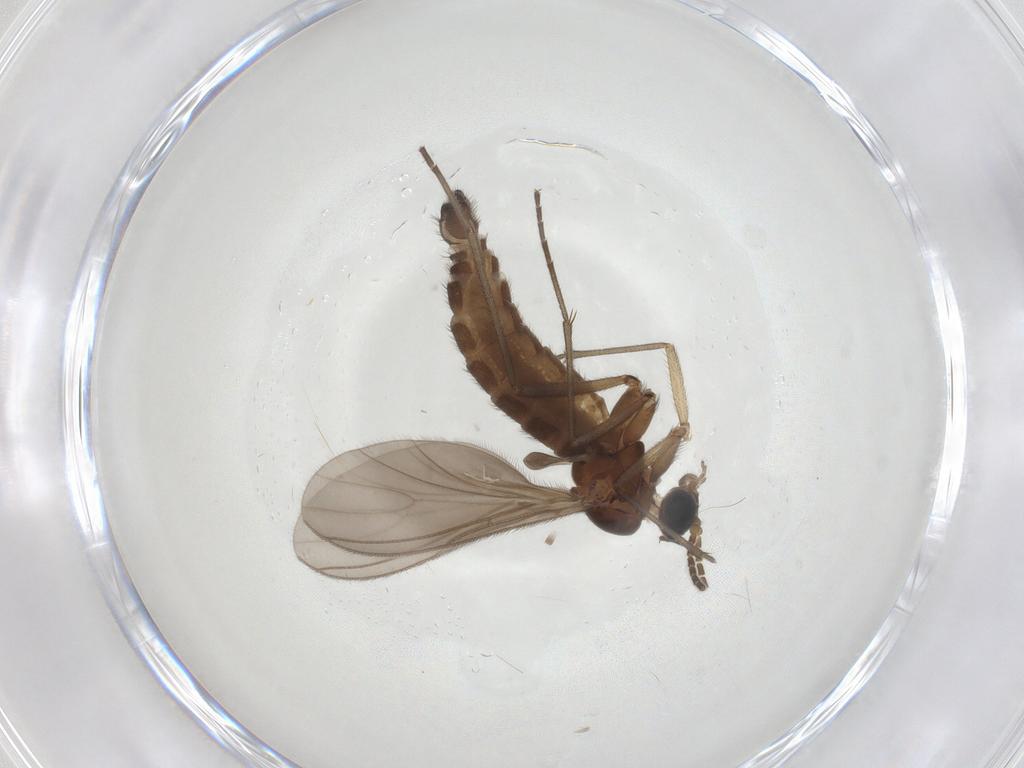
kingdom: Animalia
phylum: Arthropoda
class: Insecta
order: Diptera
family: Sciaridae
